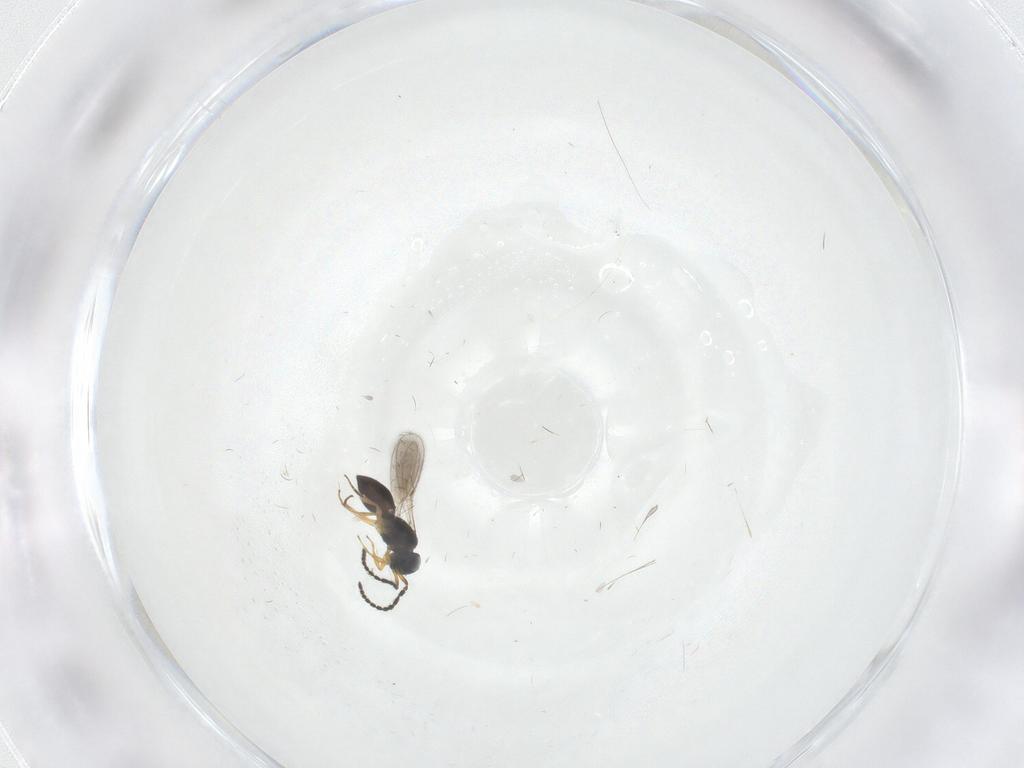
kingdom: Animalia
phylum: Arthropoda
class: Insecta
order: Hymenoptera
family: Scelionidae
